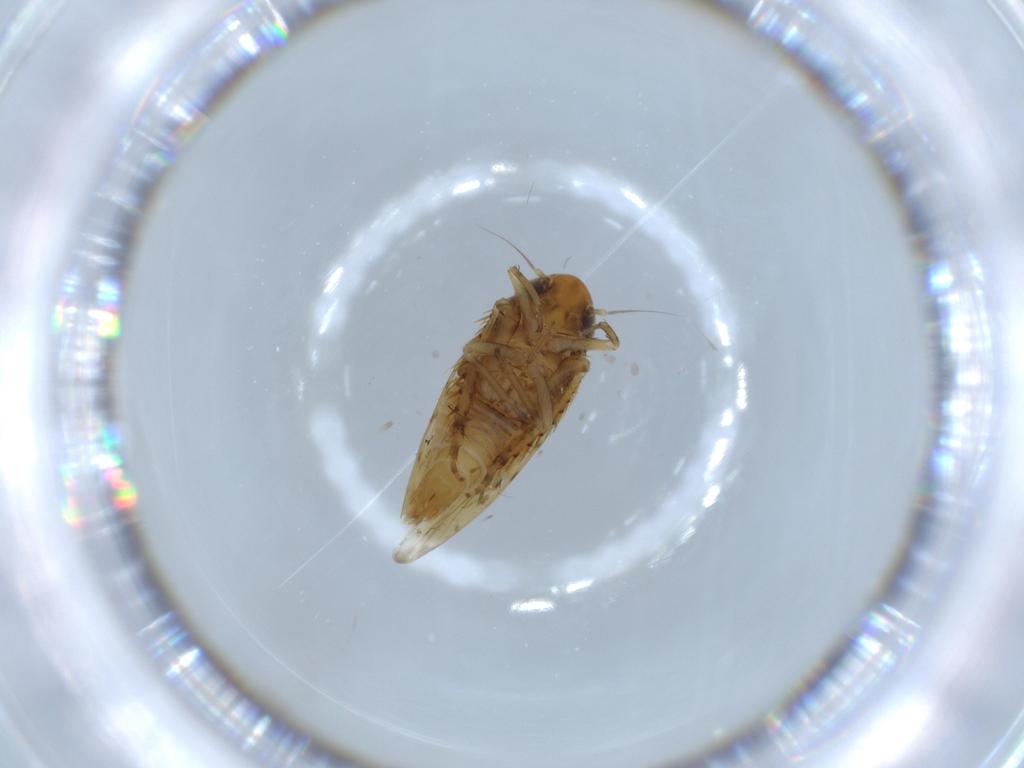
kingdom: Animalia
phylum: Arthropoda
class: Insecta
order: Hemiptera
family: Cicadellidae
